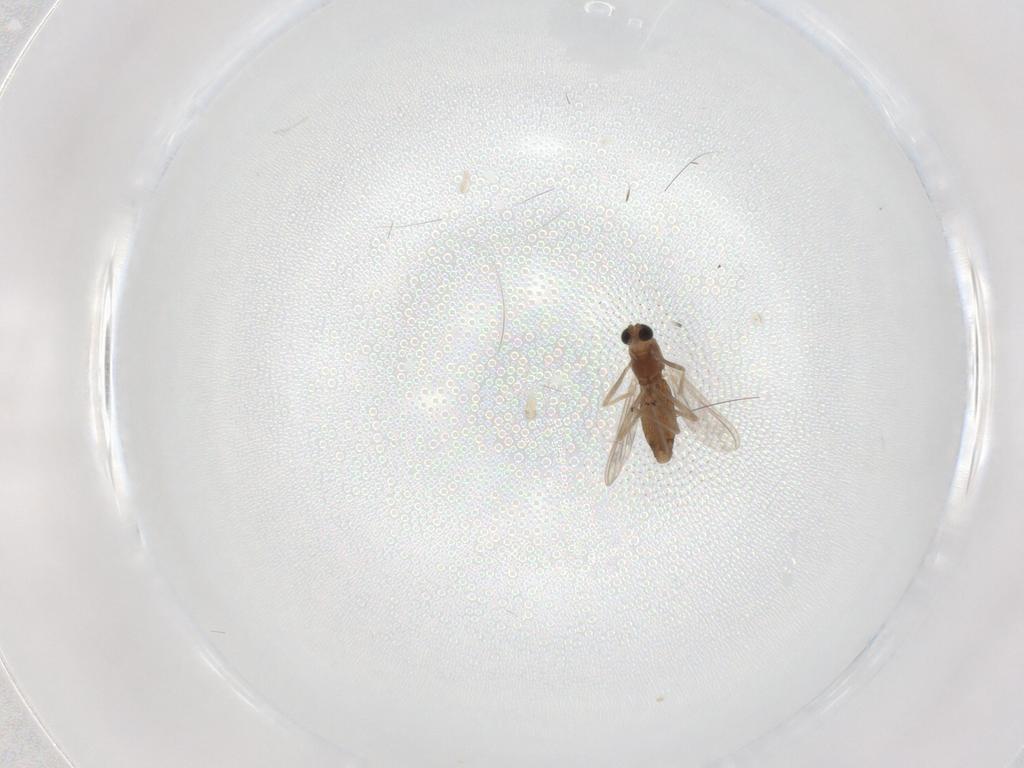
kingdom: Animalia
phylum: Arthropoda
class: Insecta
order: Diptera
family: Chironomidae
